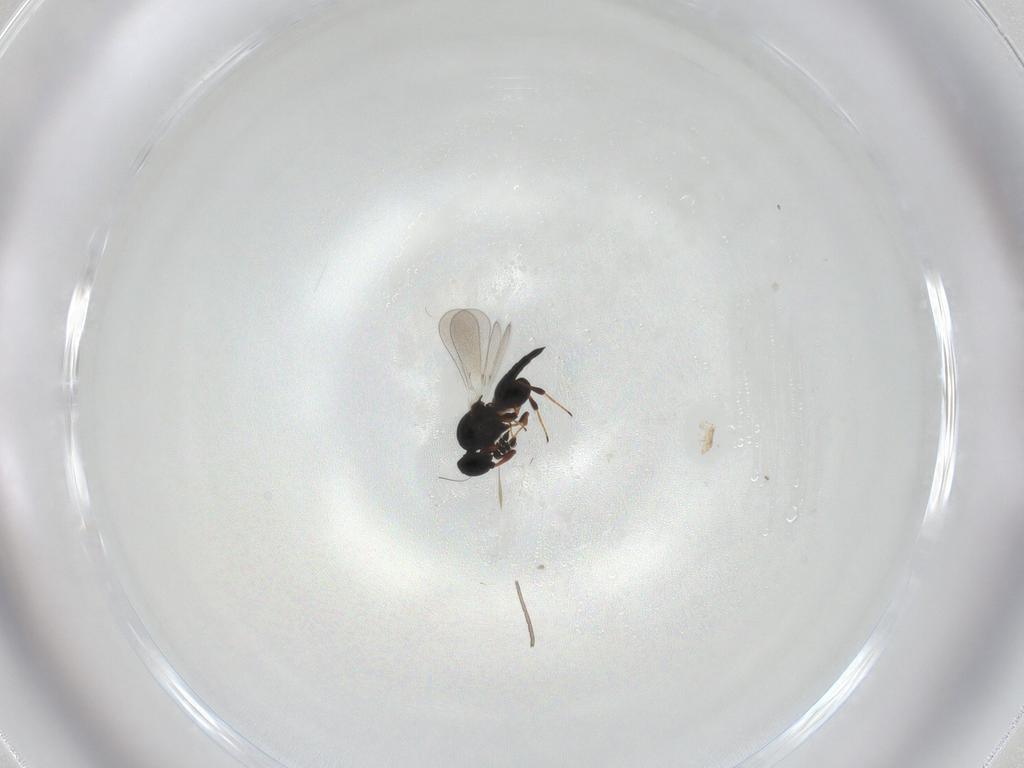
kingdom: Animalia
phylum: Arthropoda
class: Insecta
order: Hymenoptera
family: Platygastridae
